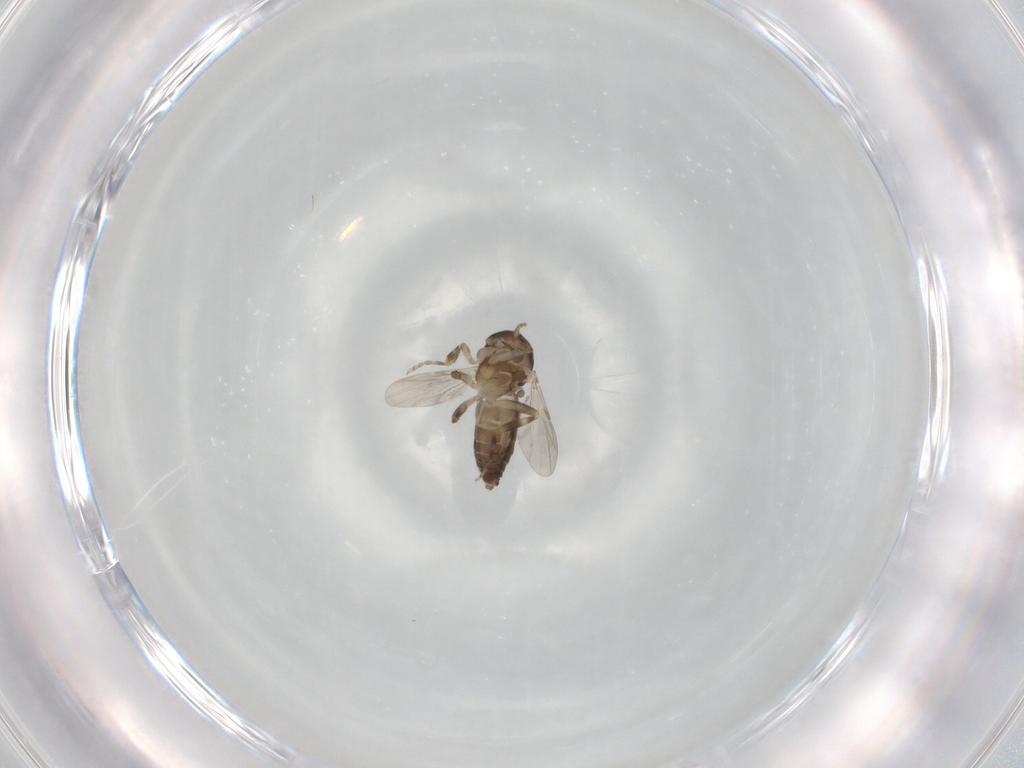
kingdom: Animalia
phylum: Arthropoda
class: Insecta
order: Diptera
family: Ceratopogonidae
